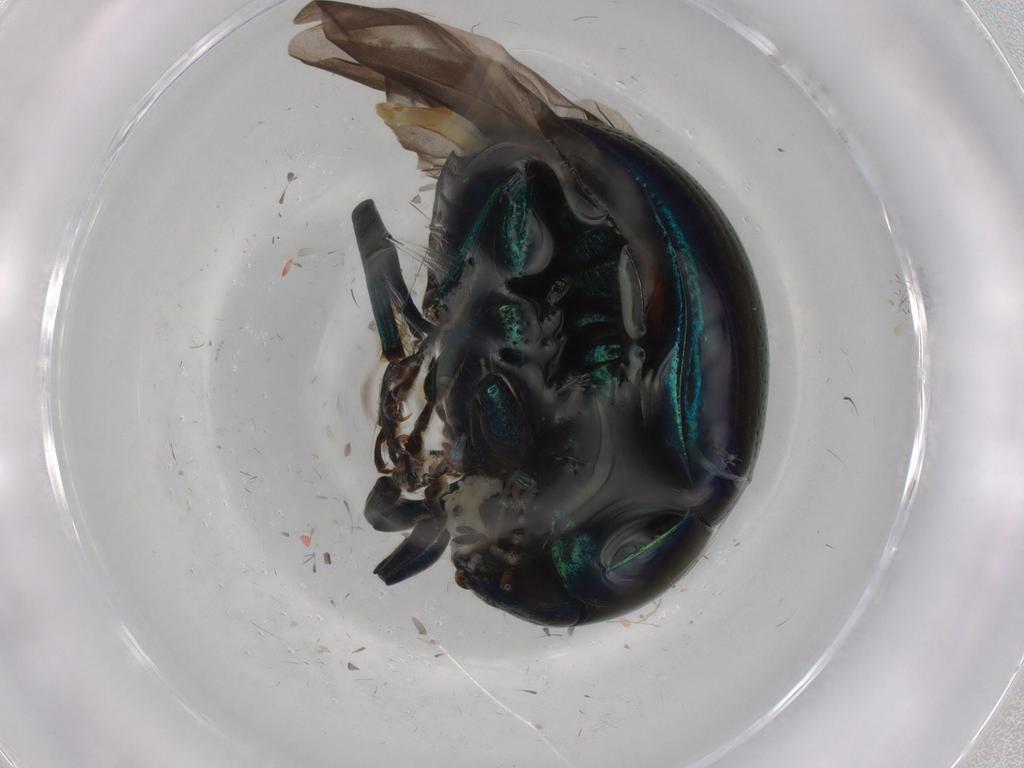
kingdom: Animalia
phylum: Arthropoda
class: Insecta
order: Coleoptera
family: Chrysomelidae
